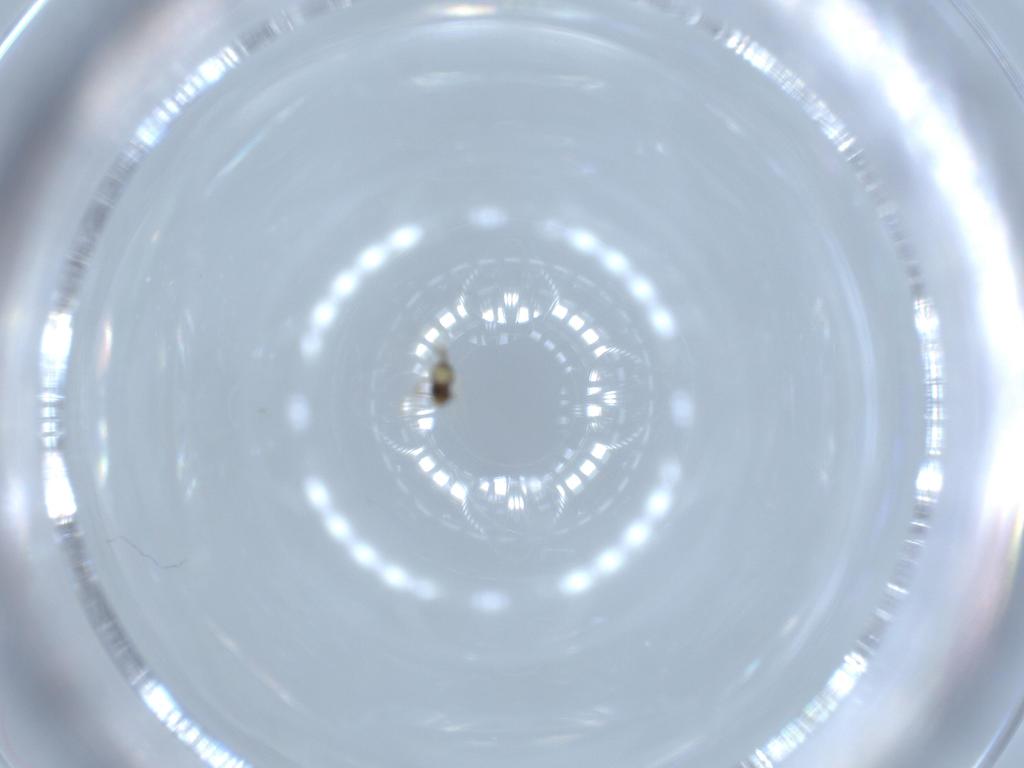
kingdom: Animalia
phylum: Arthropoda
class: Insecta
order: Hymenoptera
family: Aphelinidae
